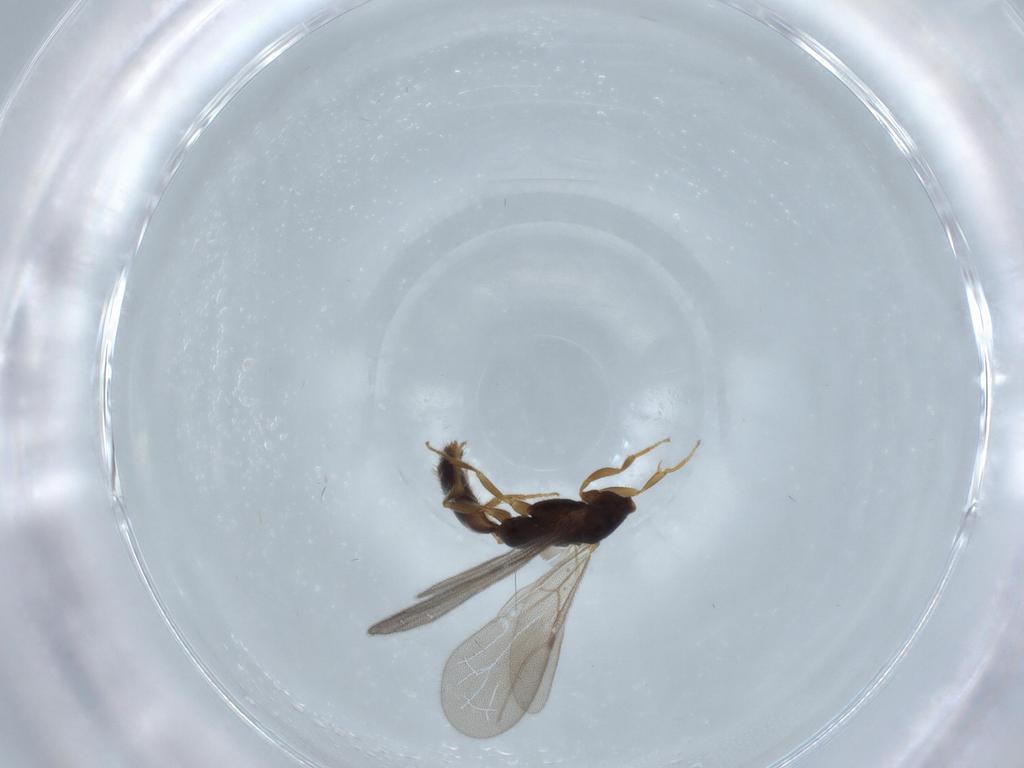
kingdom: Animalia
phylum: Arthropoda
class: Insecta
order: Hymenoptera
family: Bethylidae
